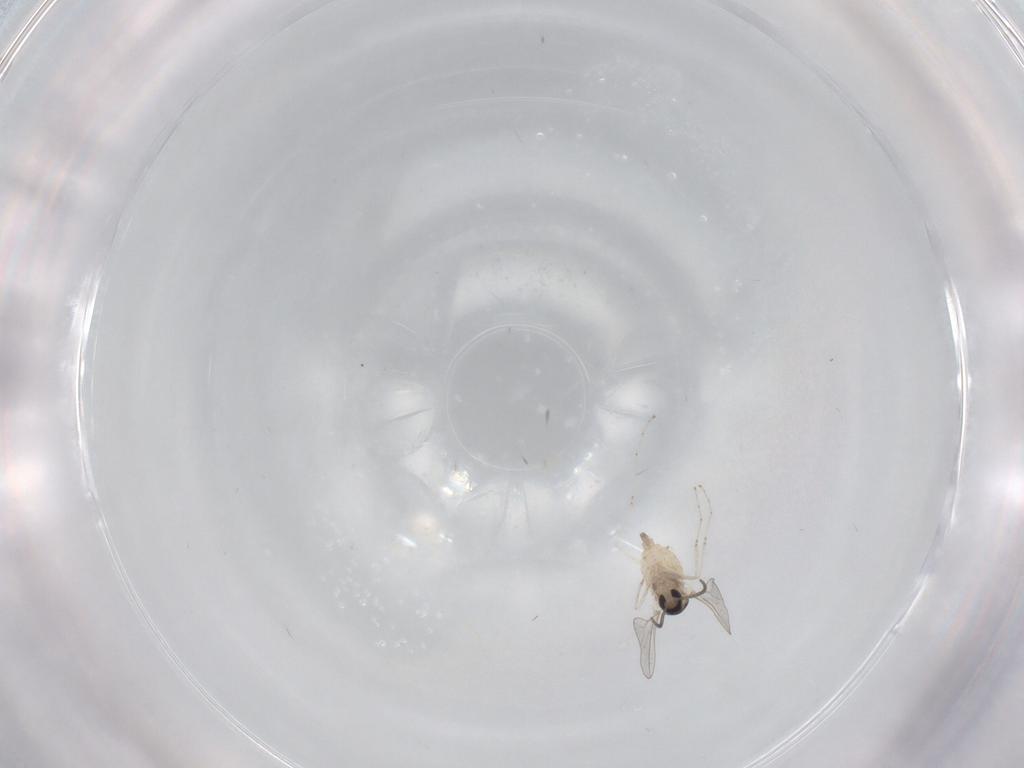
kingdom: Animalia
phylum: Arthropoda
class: Insecta
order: Diptera
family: Cecidomyiidae
